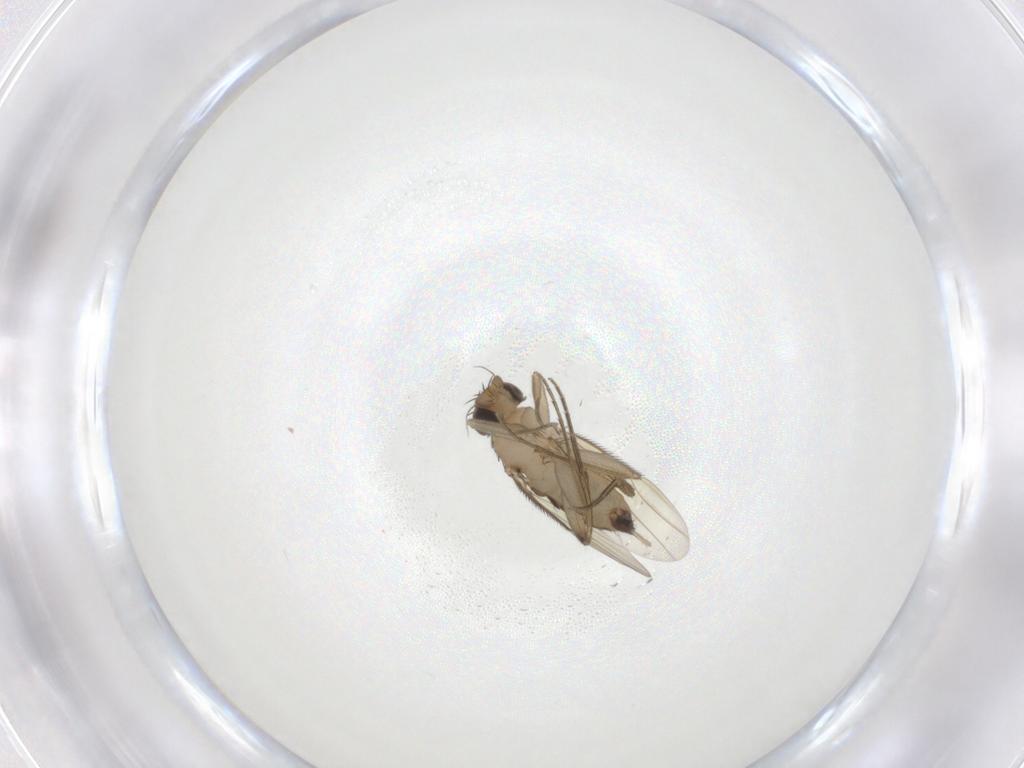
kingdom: Animalia
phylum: Arthropoda
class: Insecta
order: Diptera
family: Phoridae
